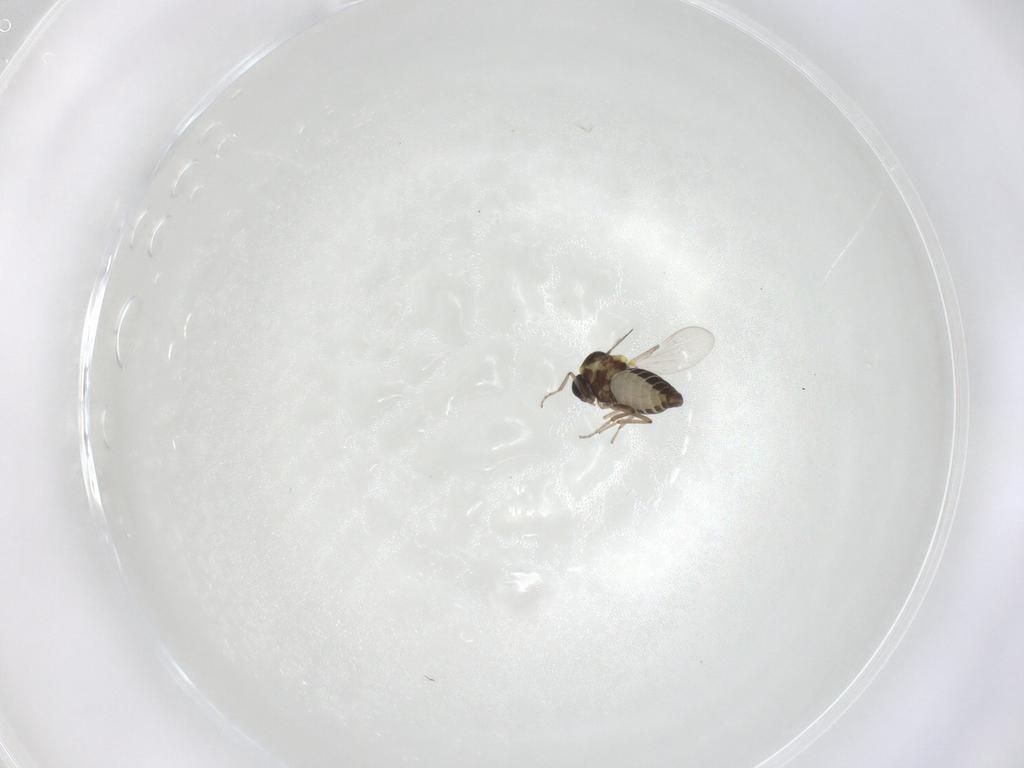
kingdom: Animalia
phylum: Arthropoda
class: Insecta
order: Diptera
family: Ceratopogonidae
